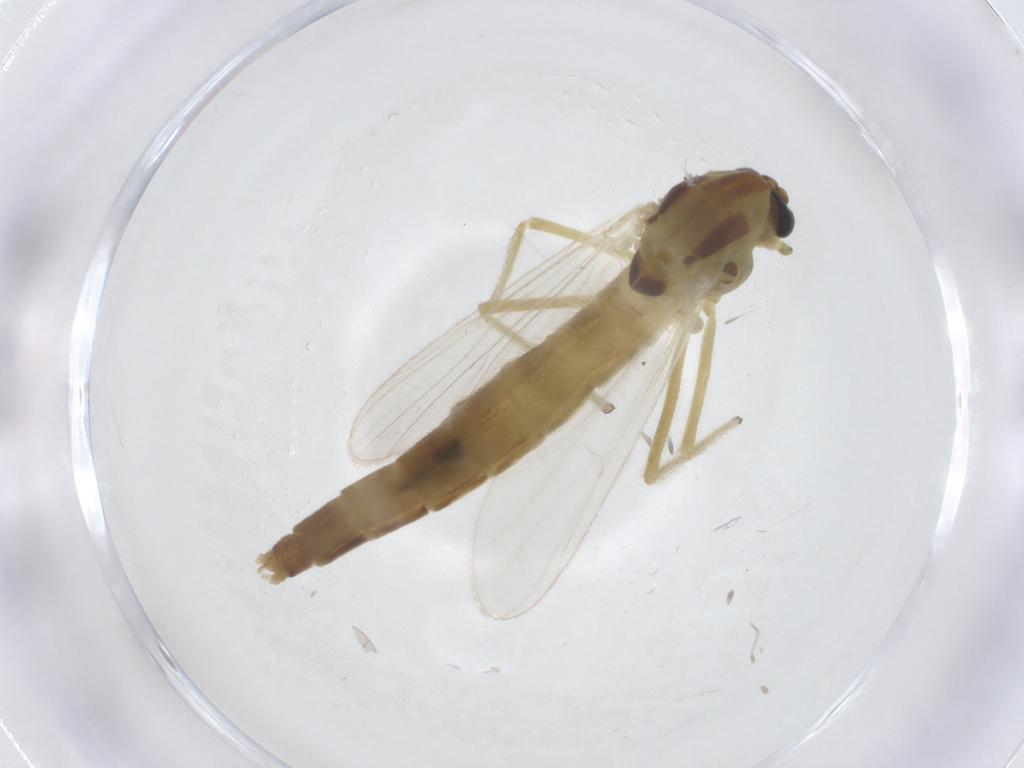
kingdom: Animalia
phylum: Arthropoda
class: Insecta
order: Diptera
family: Chironomidae
